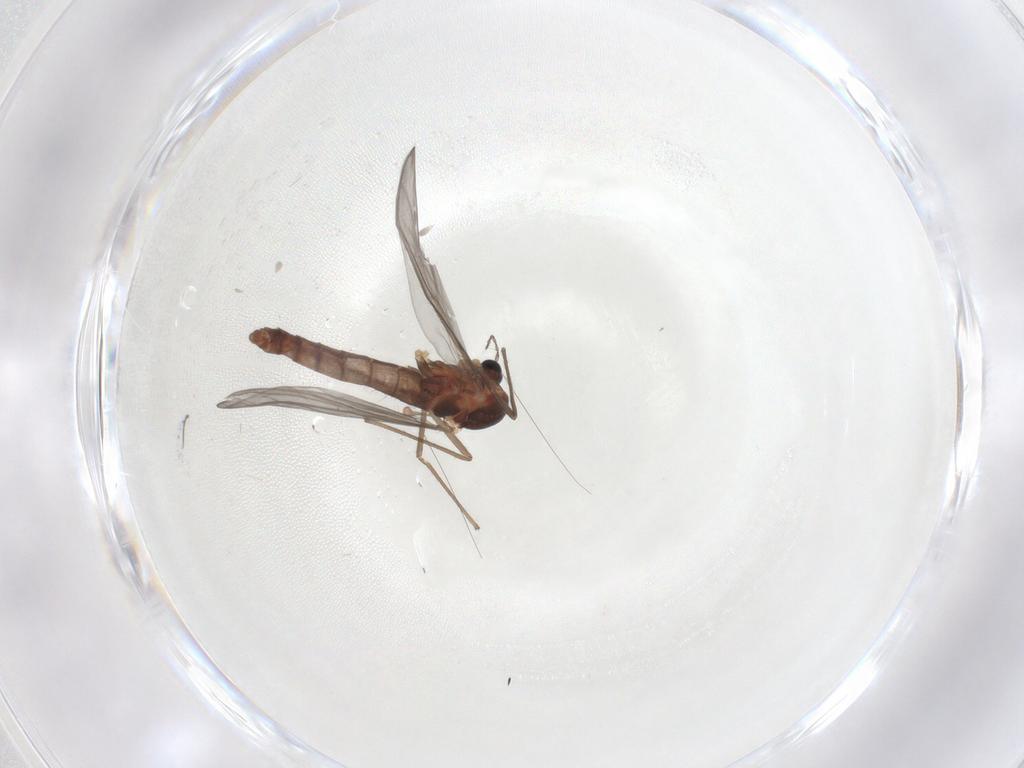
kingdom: Animalia
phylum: Arthropoda
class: Insecta
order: Diptera
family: Chironomidae
